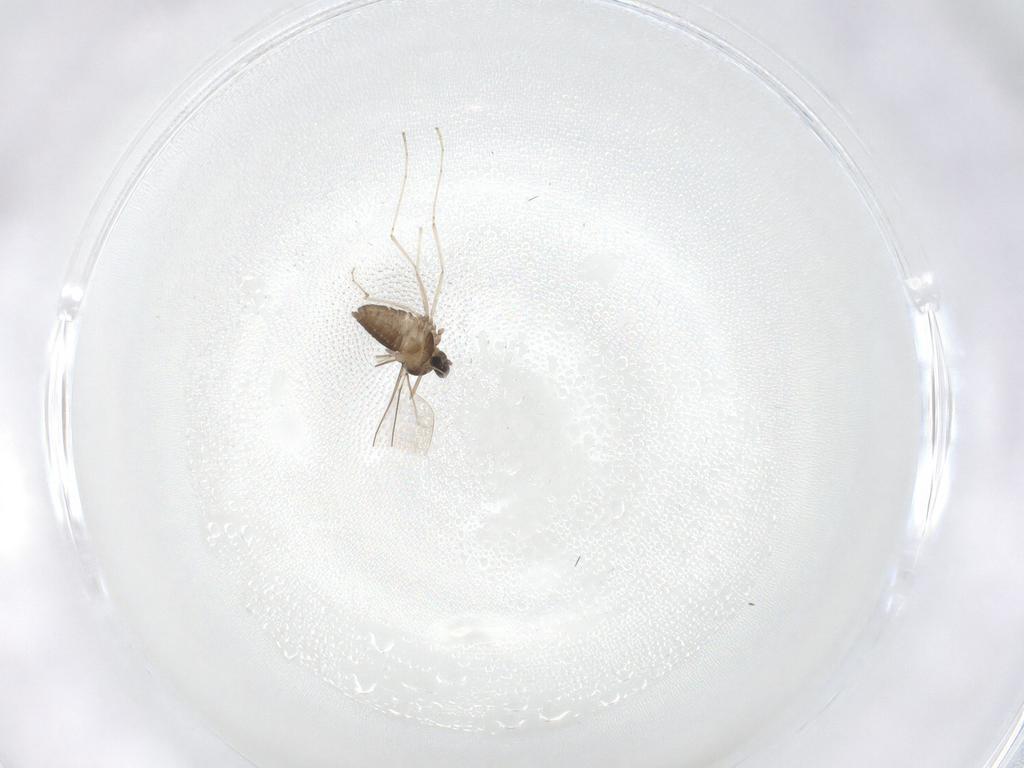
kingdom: Animalia
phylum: Arthropoda
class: Insecta
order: Diptera
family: Cecidomyiidae
